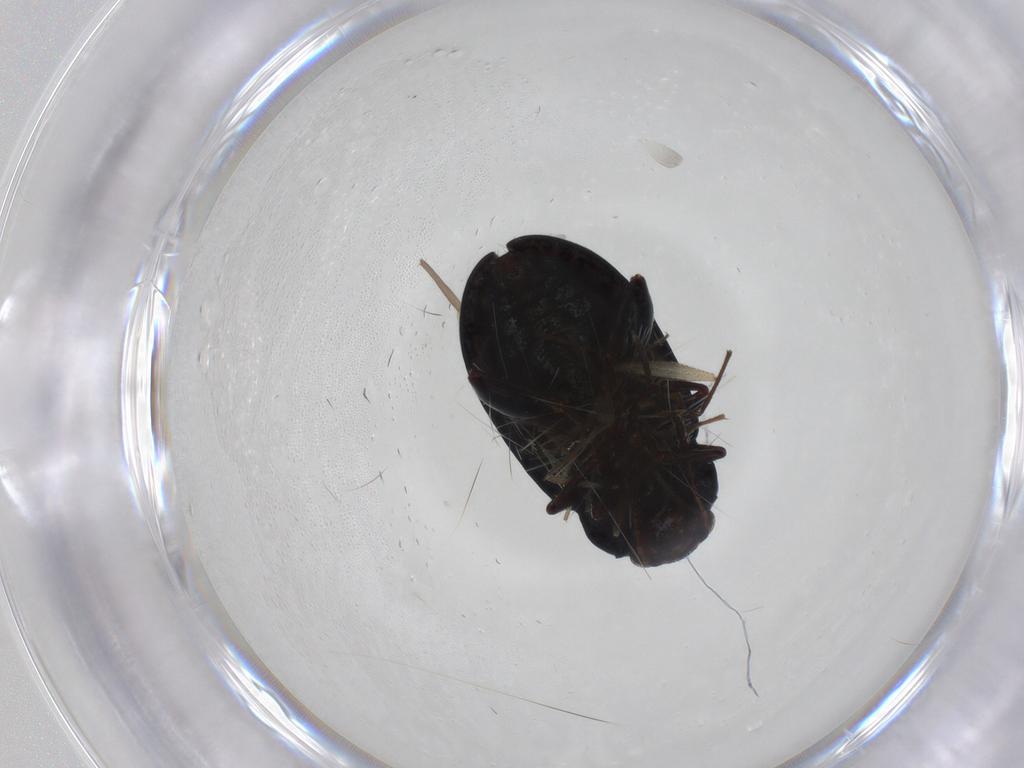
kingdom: Animalia
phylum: Arthropoda
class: Insecta
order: Coleoptera
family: Chrysomelidae
